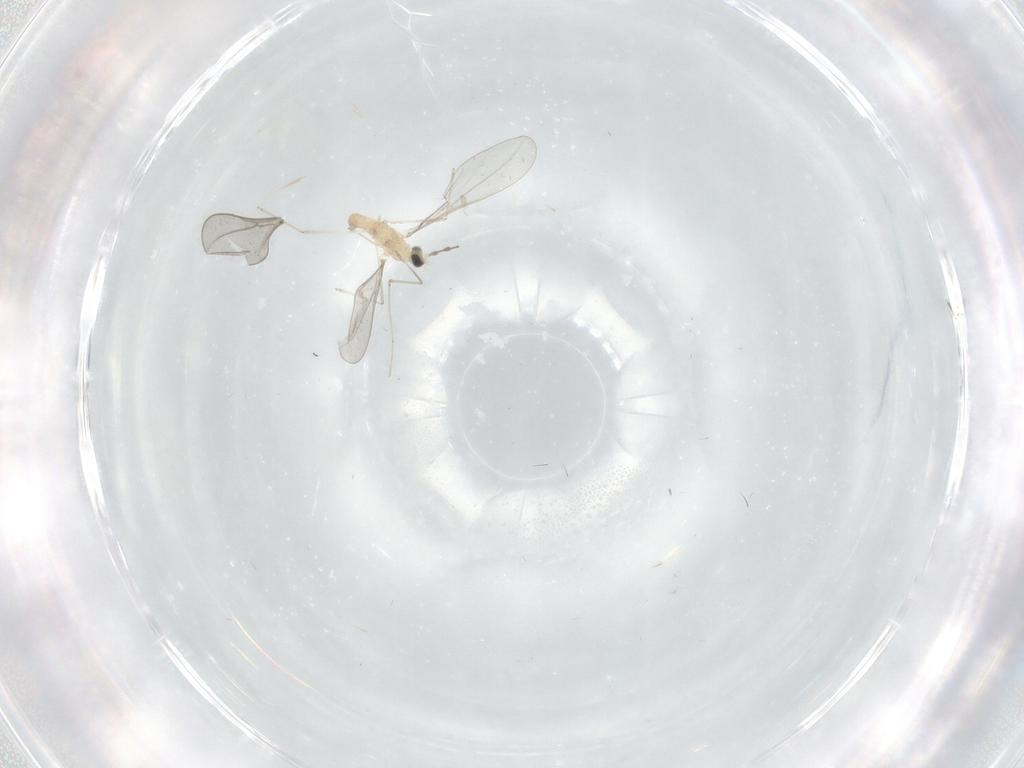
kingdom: Animalia
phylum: Arthropoda
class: Insecta
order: Diptera
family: Cecidomyiidae
